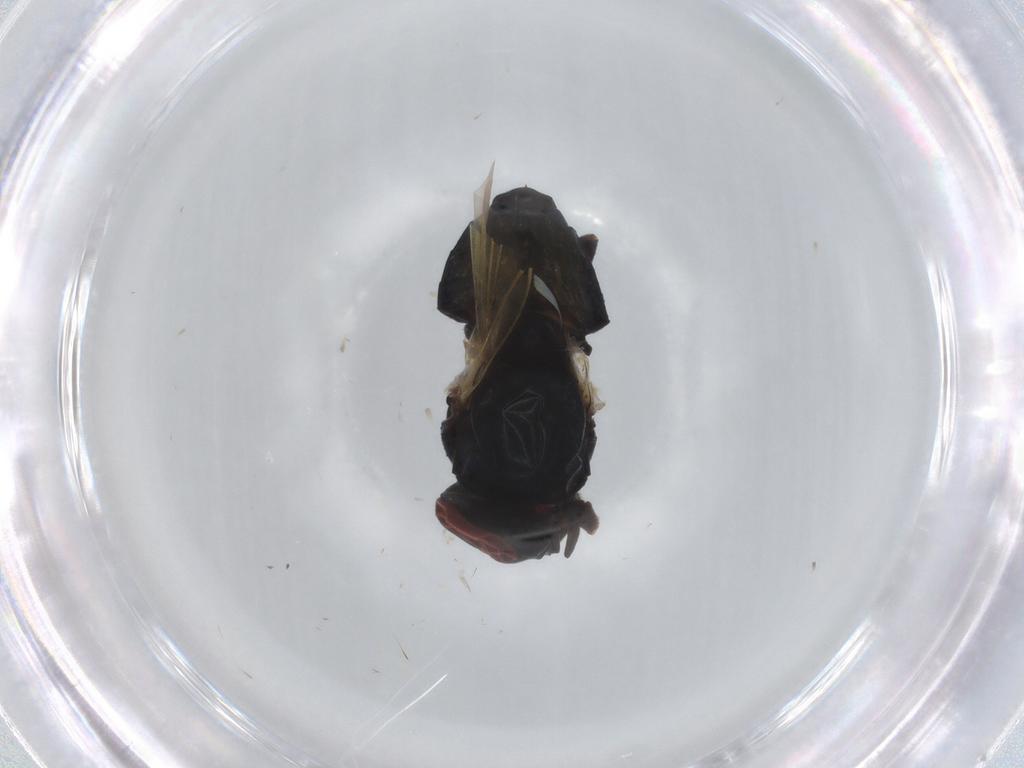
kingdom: Animalia
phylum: Arthropoda
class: Insecta
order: Diptera
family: Lonchaeidae
